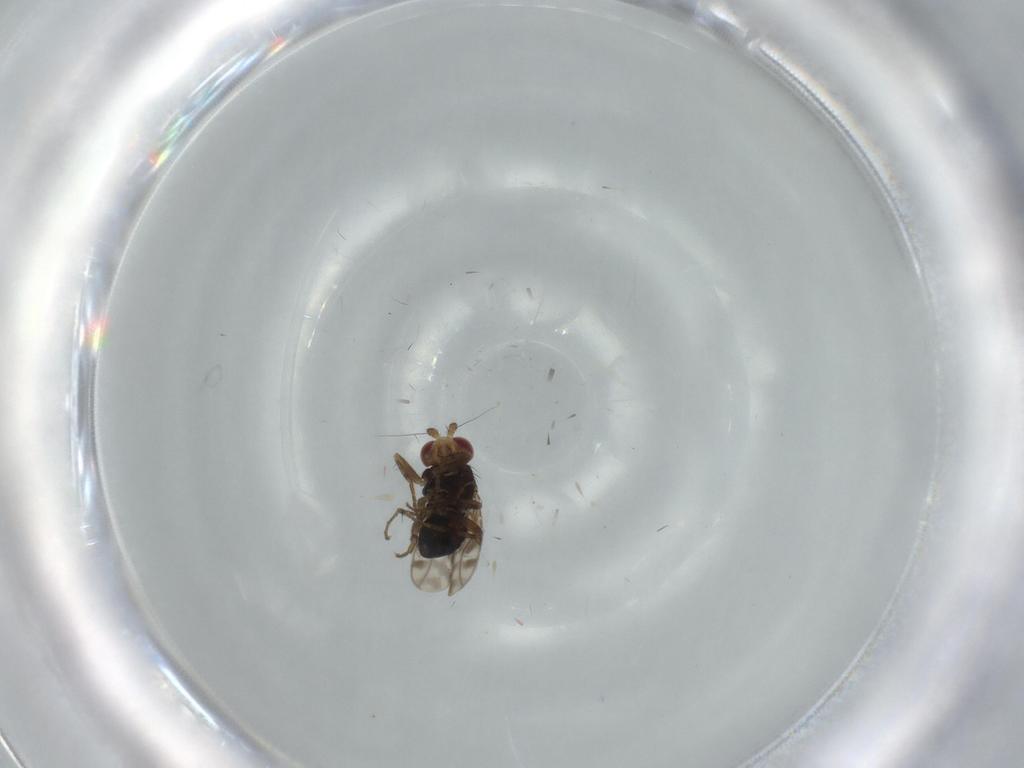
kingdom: Animalia
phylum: Arthropoda
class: Insecta
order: Diptera
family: Sphaeroceridae
